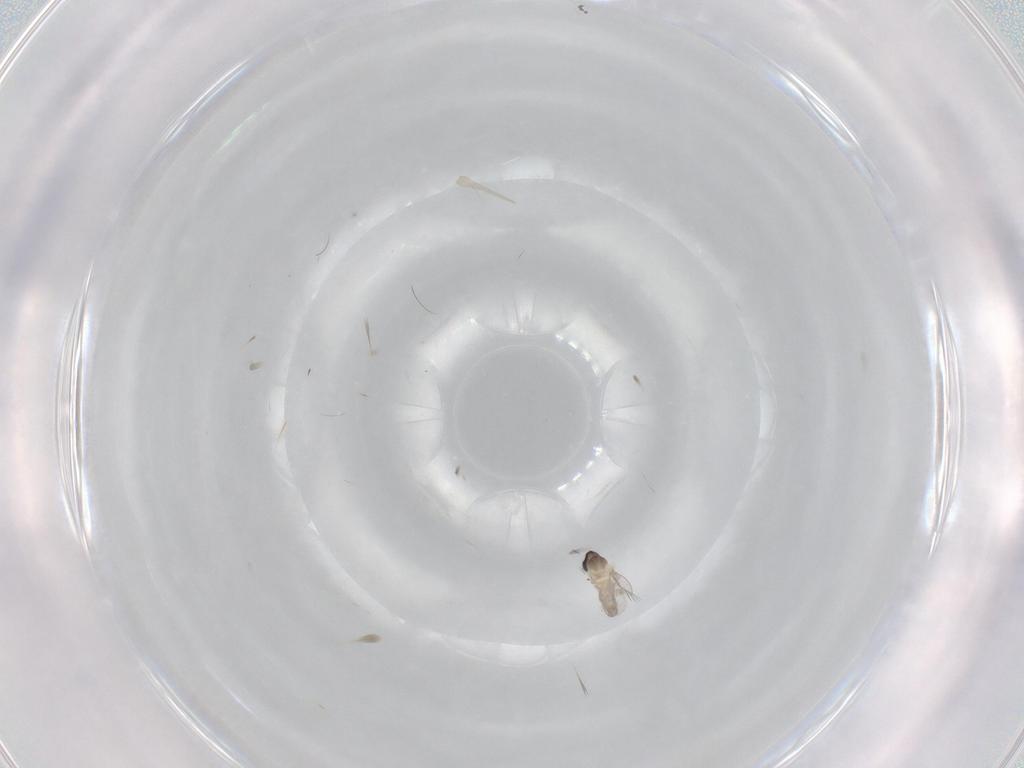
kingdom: Animalia
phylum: Arthropoda
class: Insecta
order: Diptera
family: Cecidomyiidae
